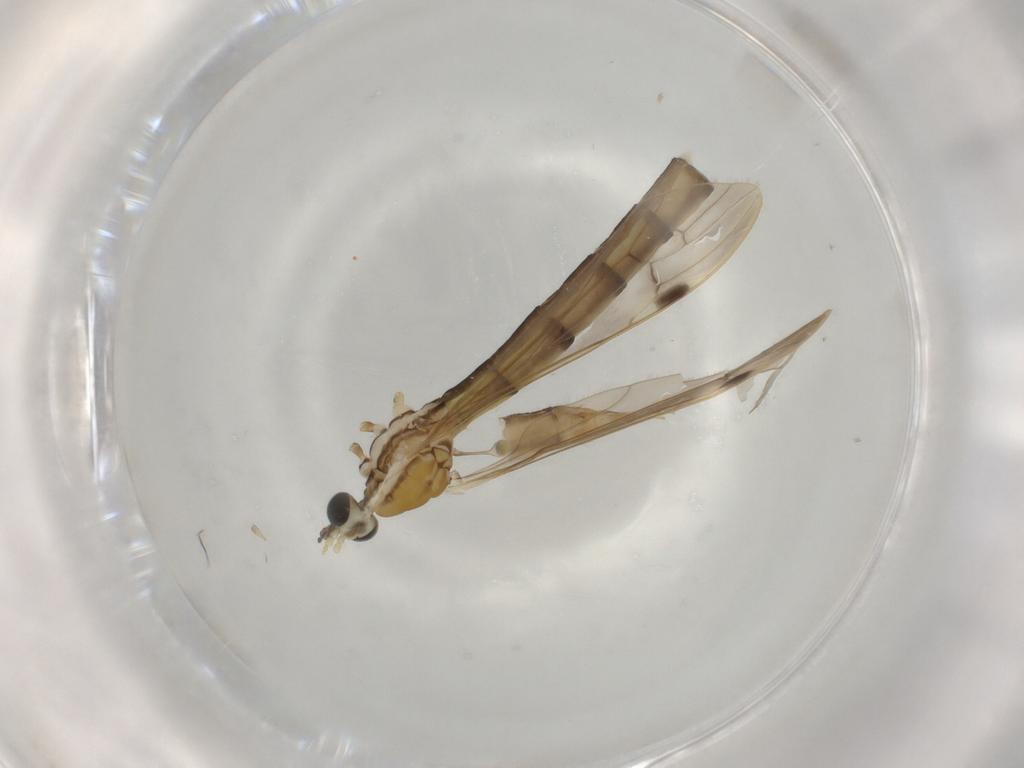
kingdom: Animalia
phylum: Arthropoda
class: Insecta
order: Diptera
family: Limoniidae
